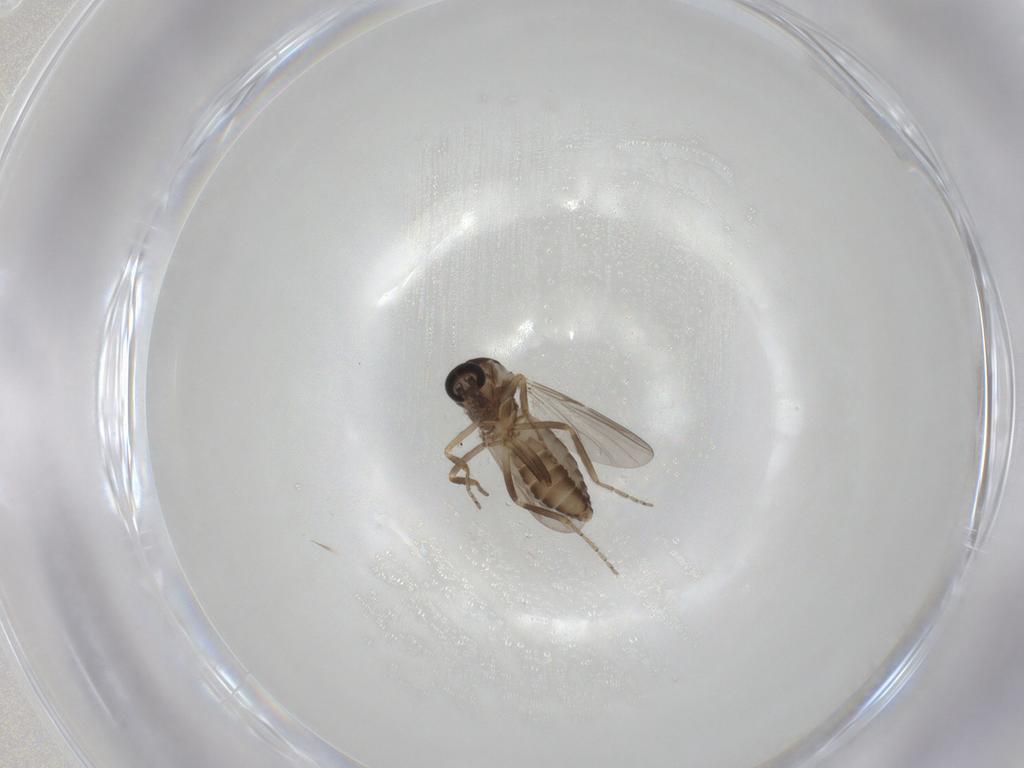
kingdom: Animalia
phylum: Arthropoda
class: Insecta
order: Diptera
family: Ceratopogonidae
